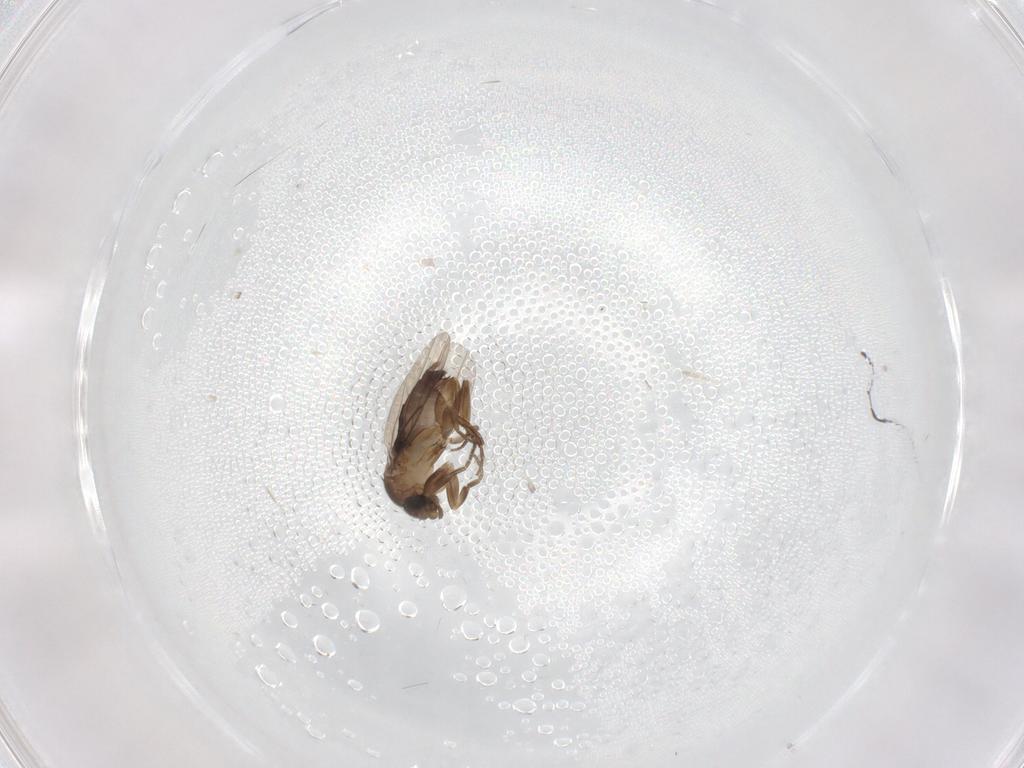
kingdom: Animalia
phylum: Arthropoda
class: Insecta
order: Diptera
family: Phoridae
